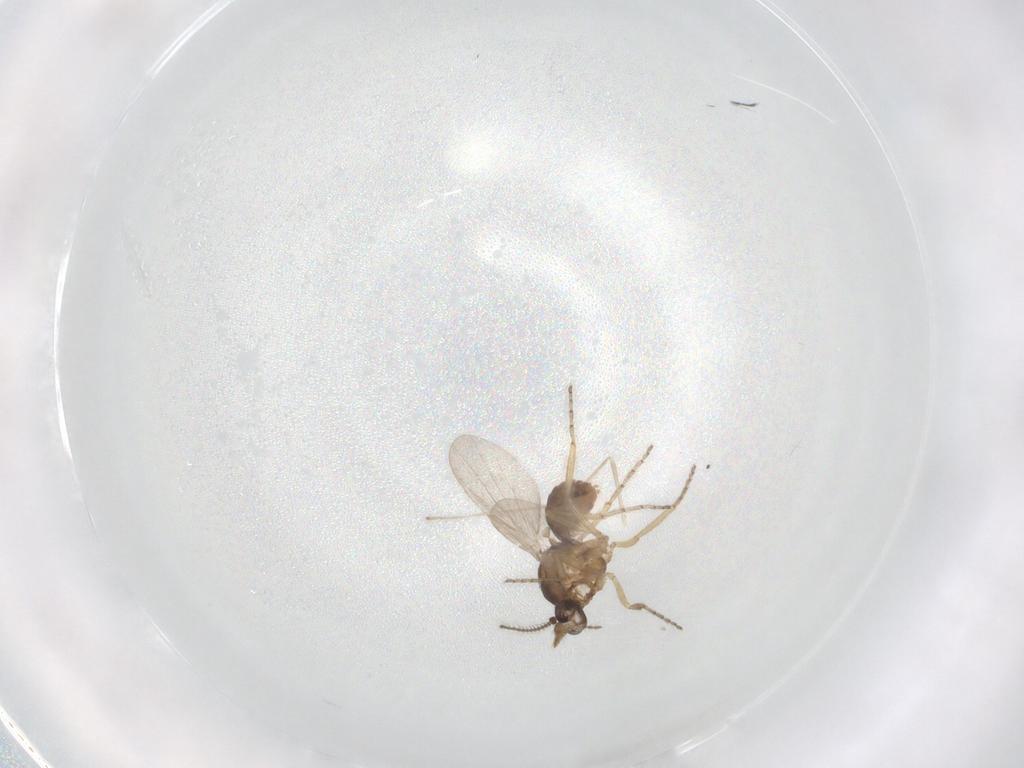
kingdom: Animalia
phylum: Arthropoda
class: Insecta
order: Diptera
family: Cecidomyiidae
